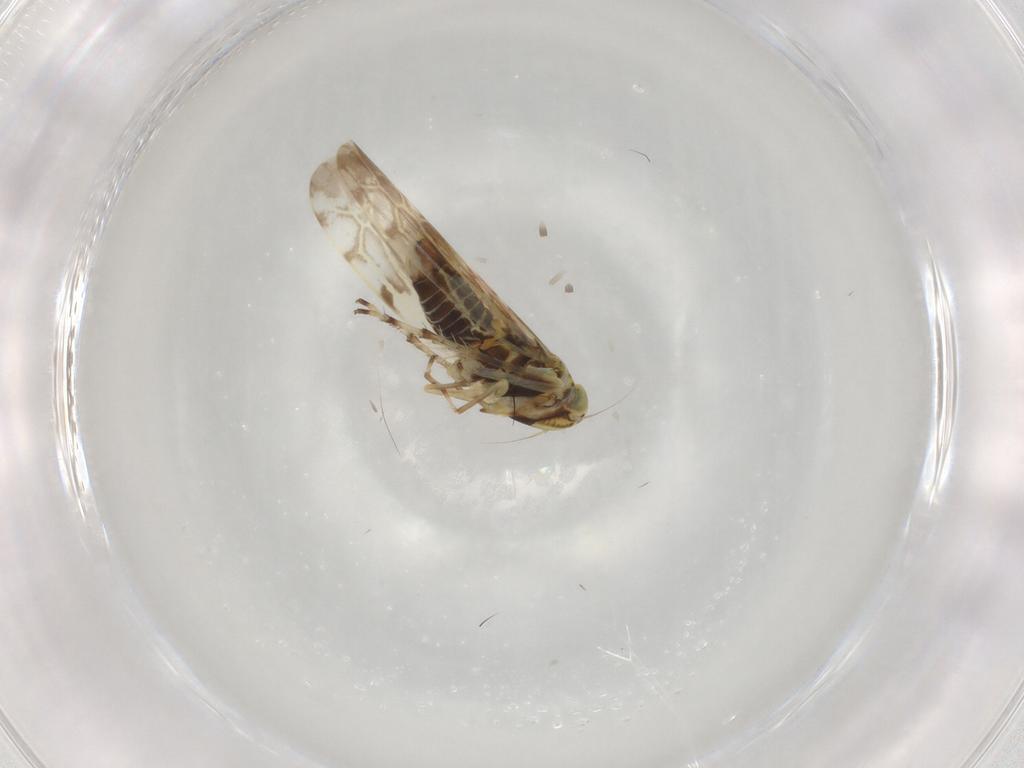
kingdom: Animalia
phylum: Arthropoda
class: Insecta
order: Hemiptera
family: Cicadellidae
